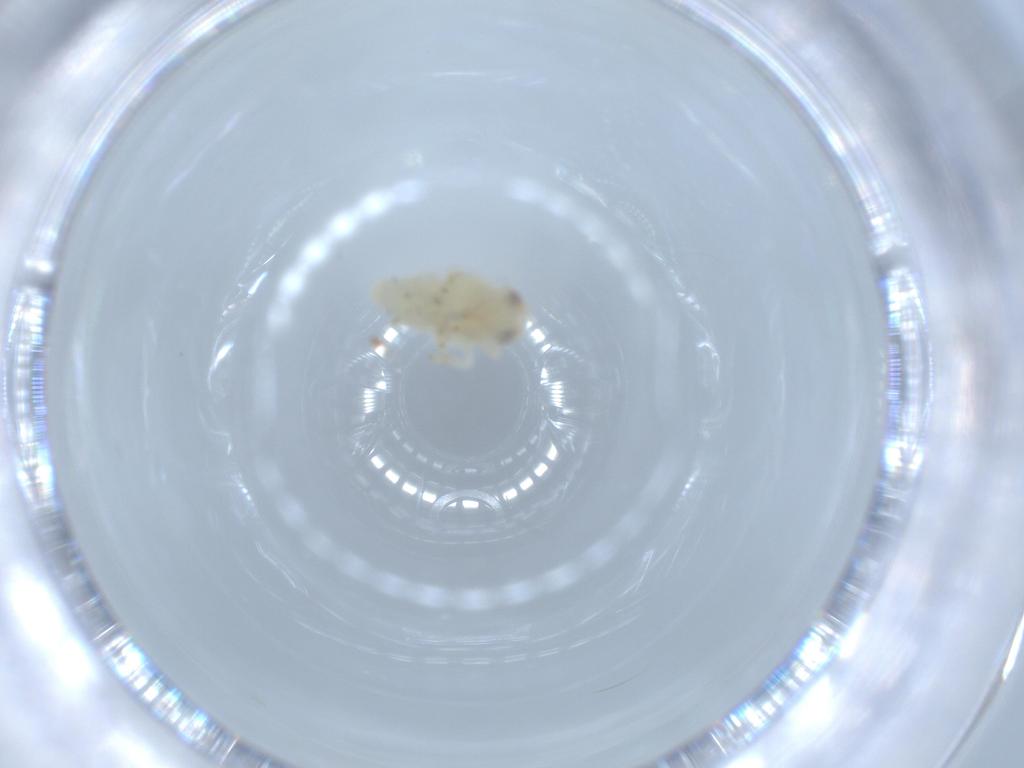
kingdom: Animalia
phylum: Arthropoda
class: Insecta
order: Hemiptera
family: Nogodinidae
